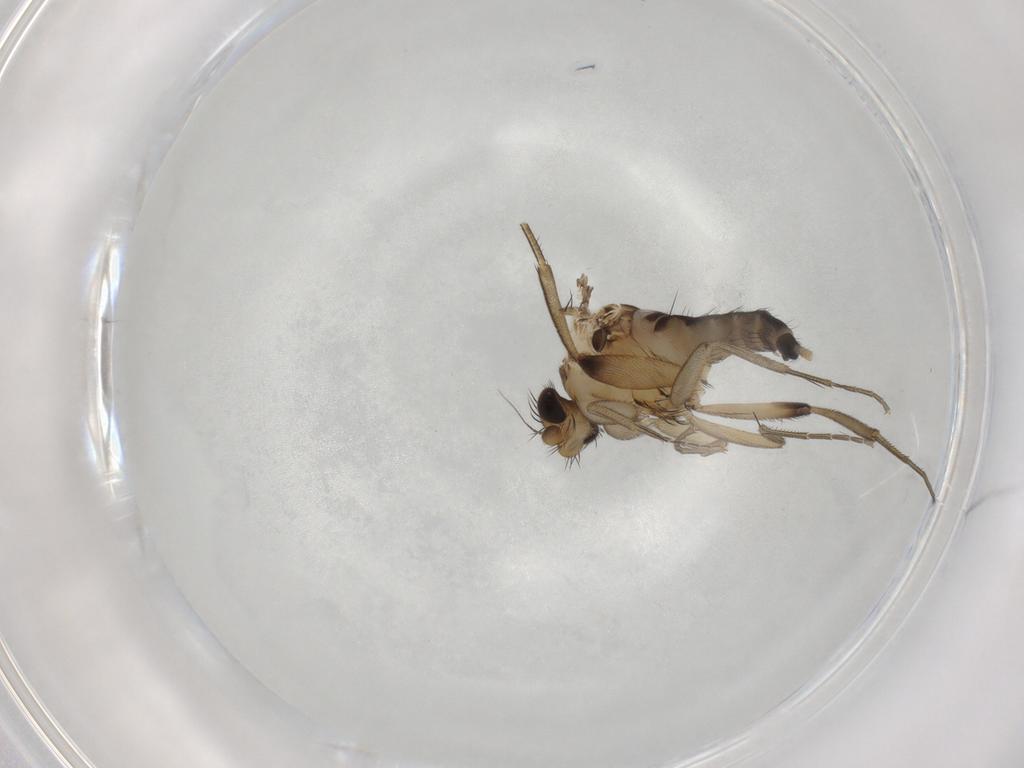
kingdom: Animalia
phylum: Arthropoda
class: Insecta
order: Diptera
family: Phoridae
